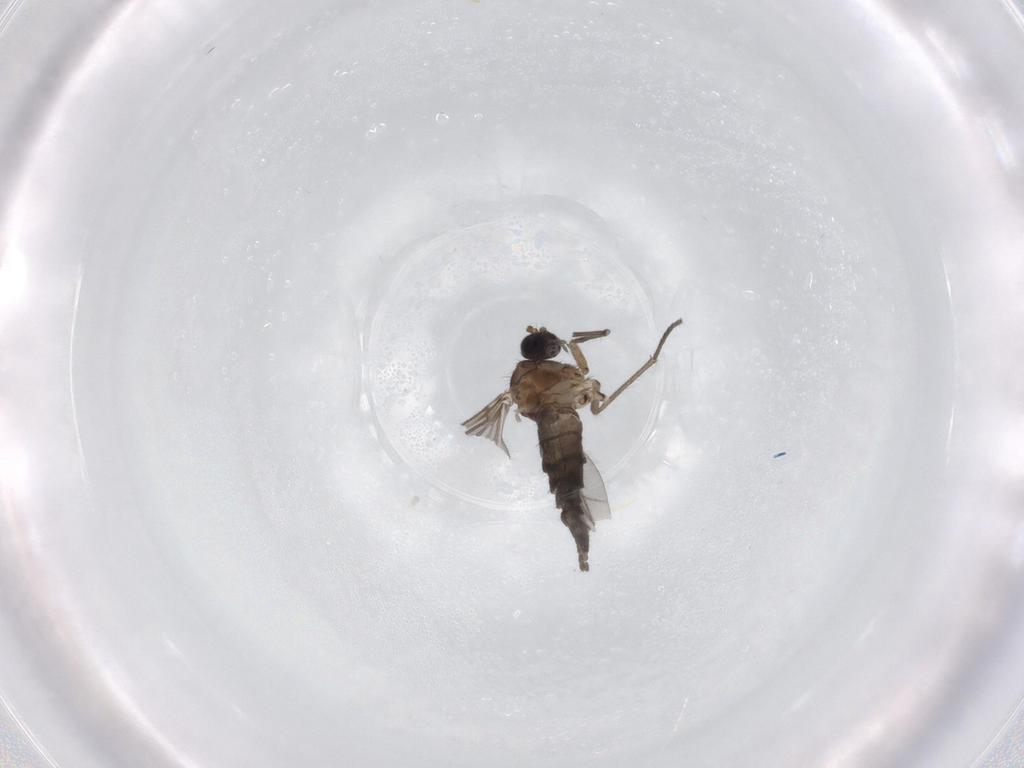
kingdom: Animalia
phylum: Arthropoda
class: Insecta
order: Diptera
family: Sciaridae
